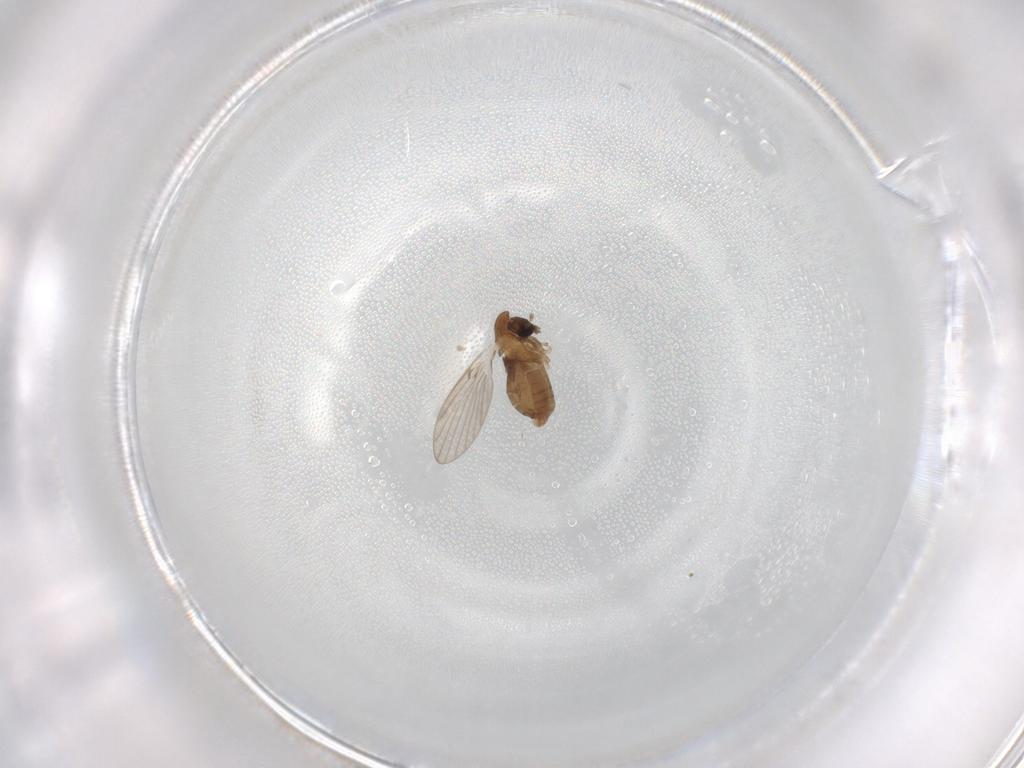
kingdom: Animalia
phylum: Arthropoda
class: Insecta
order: Diptera
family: Psychodidae
